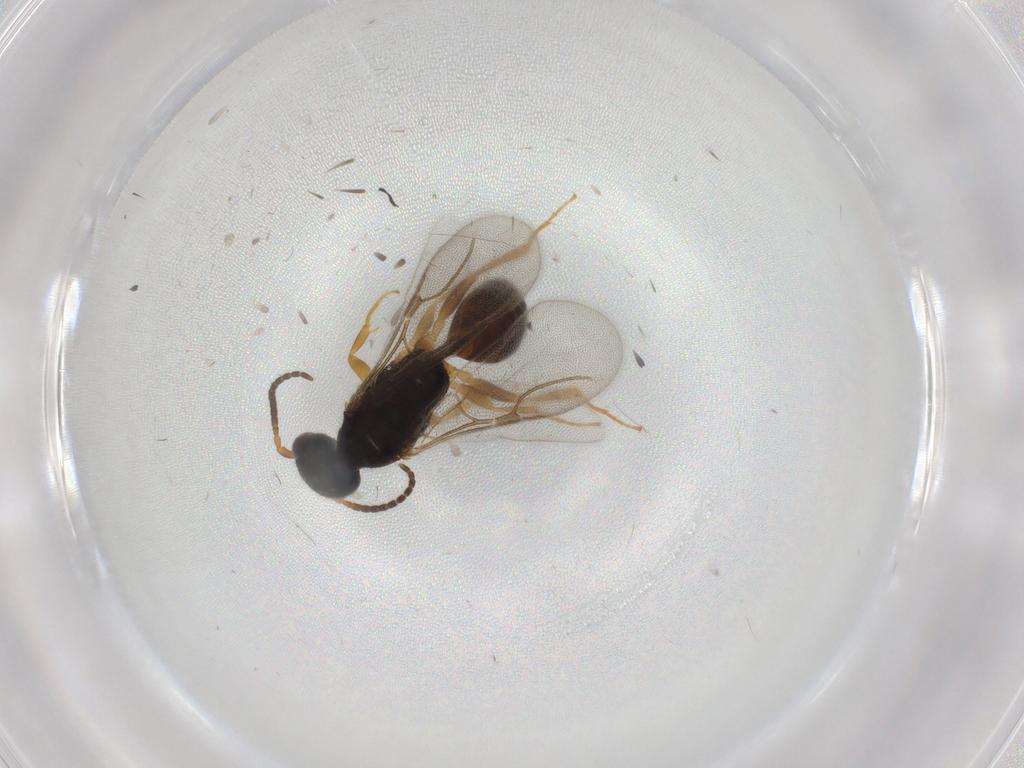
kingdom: Animalia
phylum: Arthropoda
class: Insecta
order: Hymenoptera
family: Bethylidae
